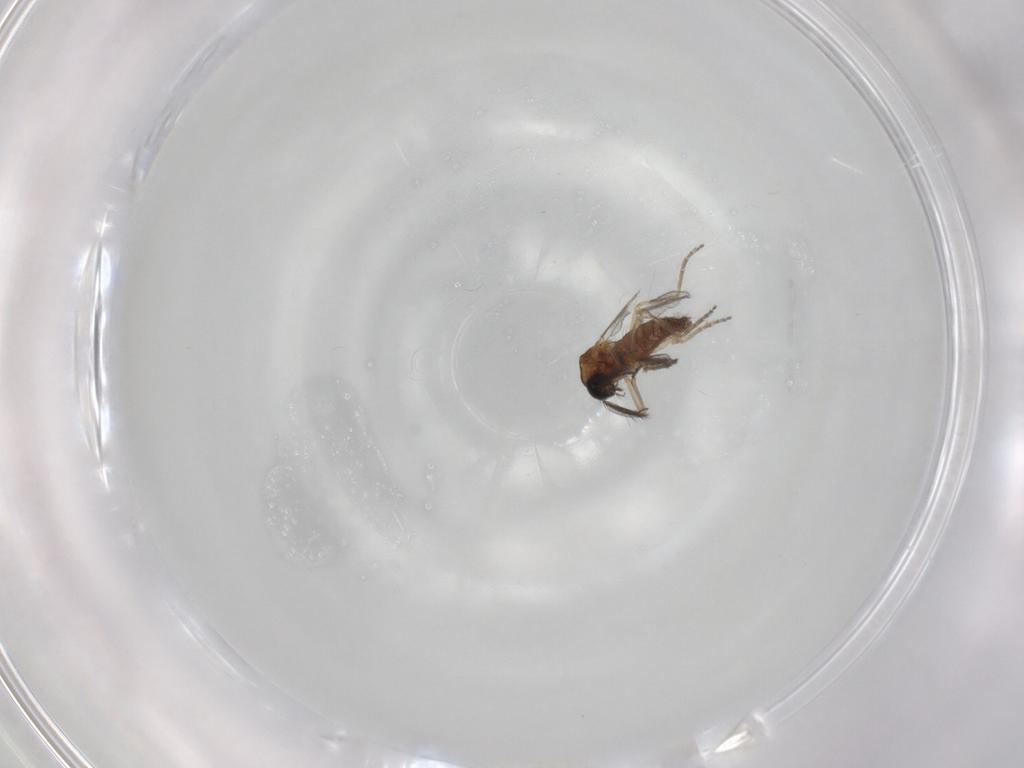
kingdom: Animalia
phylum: Arthropoda
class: Insecta
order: Diptera
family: Ceratopogonidae
